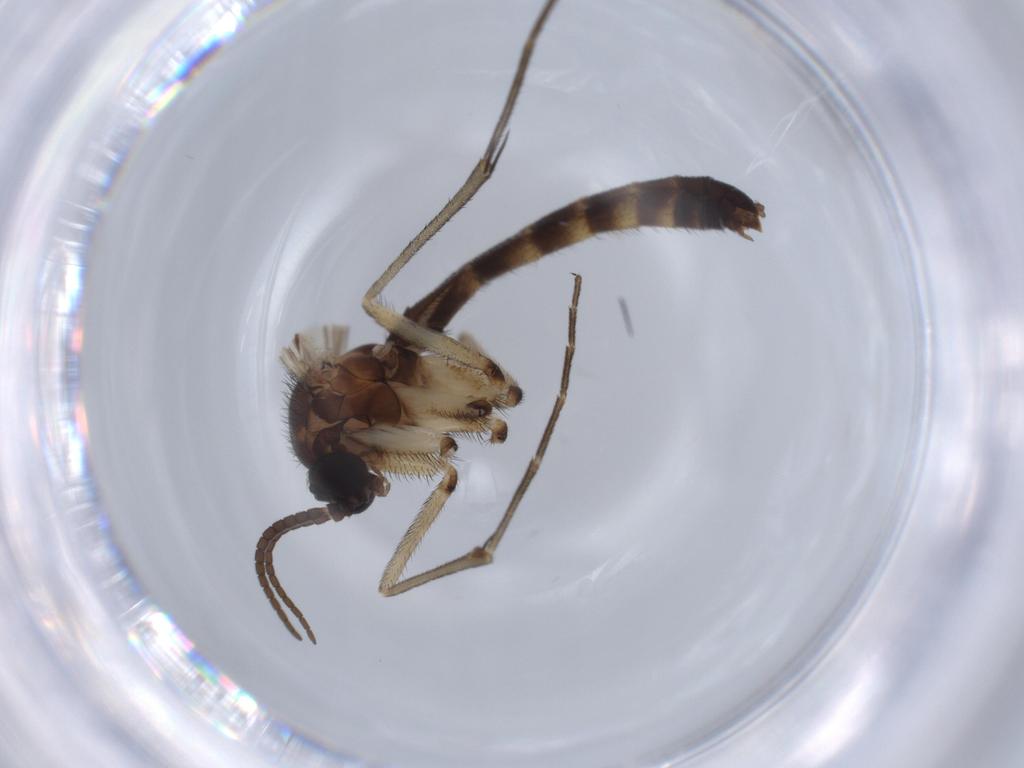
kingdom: Animalia
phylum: Arthropoda
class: Insecta
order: Diptera
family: Keroplatidae
